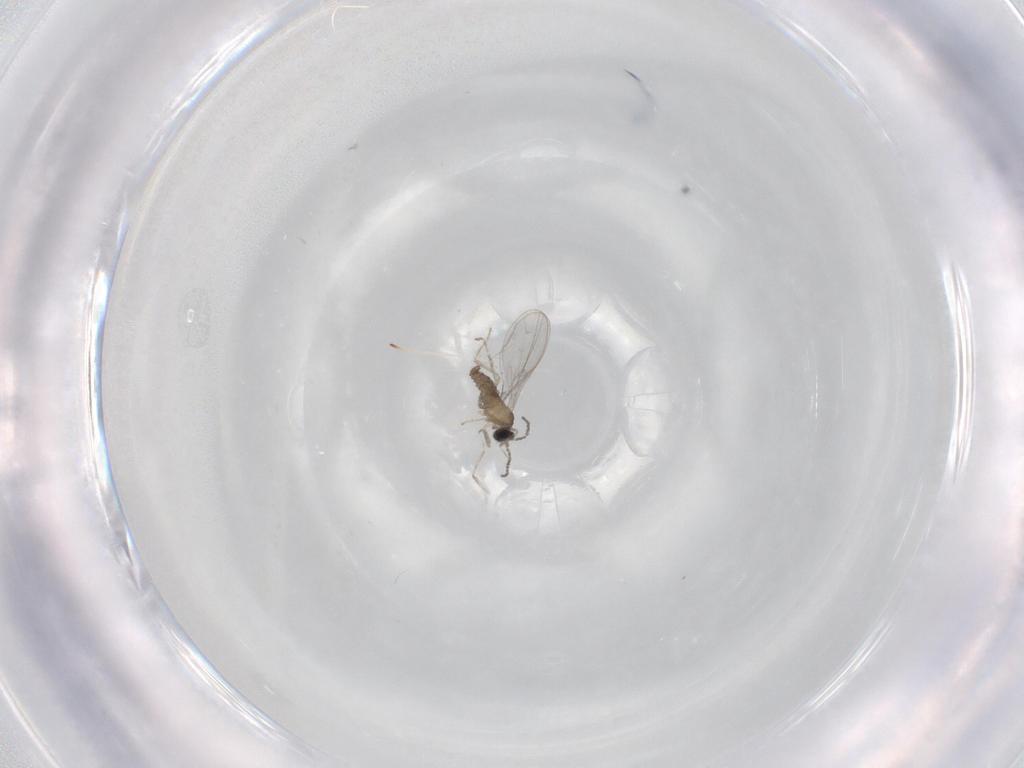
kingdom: Animalia
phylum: Arthropoda
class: Insecta
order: Diptera
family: Cecidomyiidae
